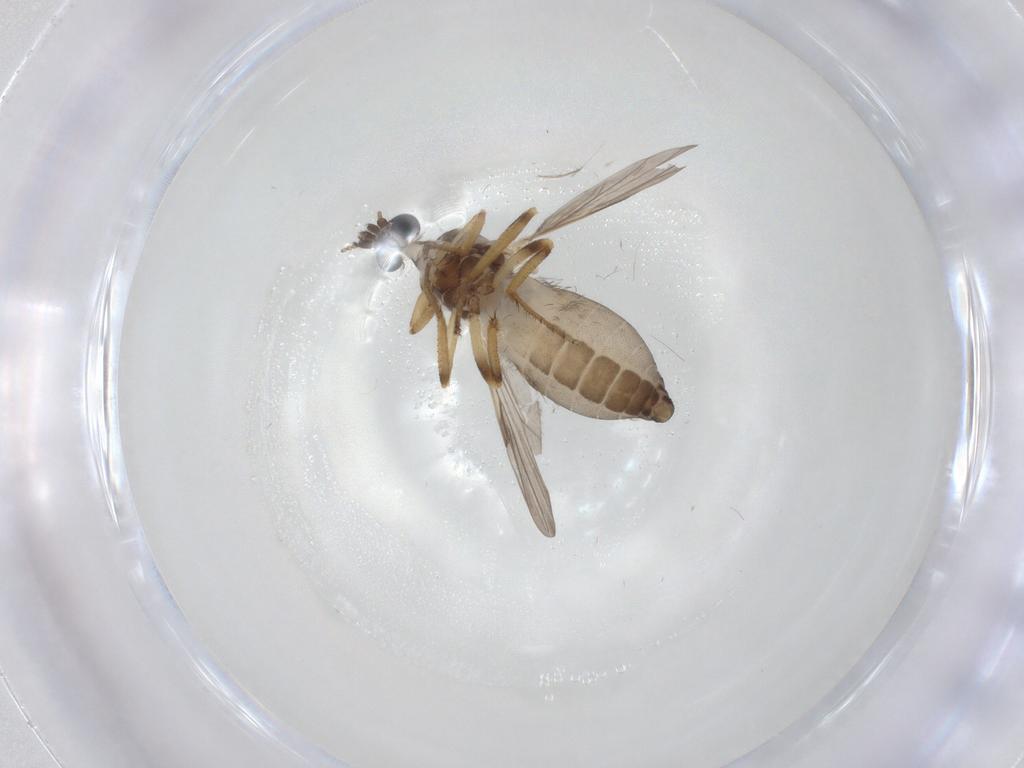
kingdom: Animalia
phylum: Arthropoda
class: Insecta
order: Diptera
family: Ceratopogonidae
